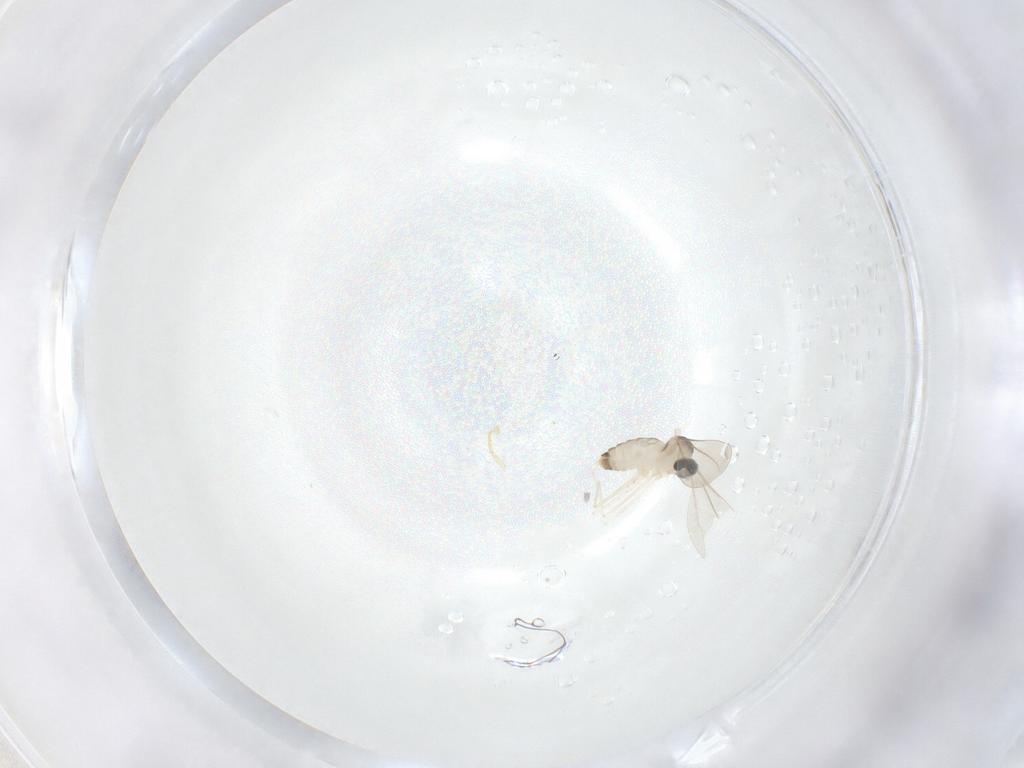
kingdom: Animalia
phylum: Arthropoda
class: Insecta
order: Diptera
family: Cecidomyiidae
